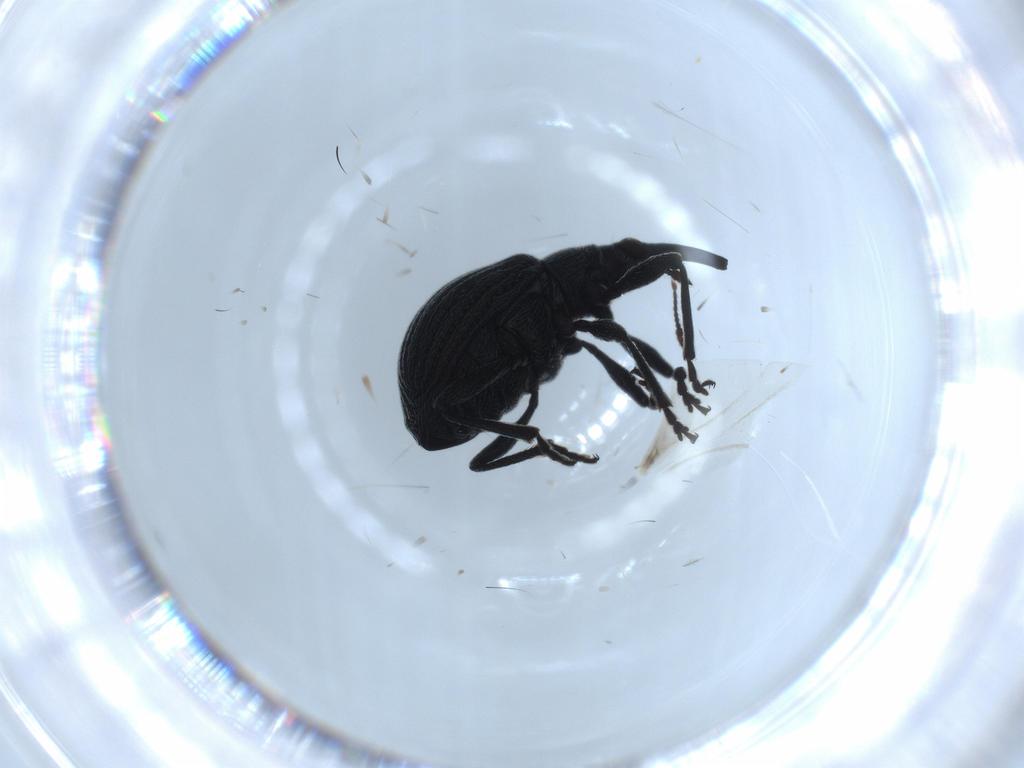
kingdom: Animalia
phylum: Arthropoda
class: Insecta
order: Coleoptera
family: Brentidae
